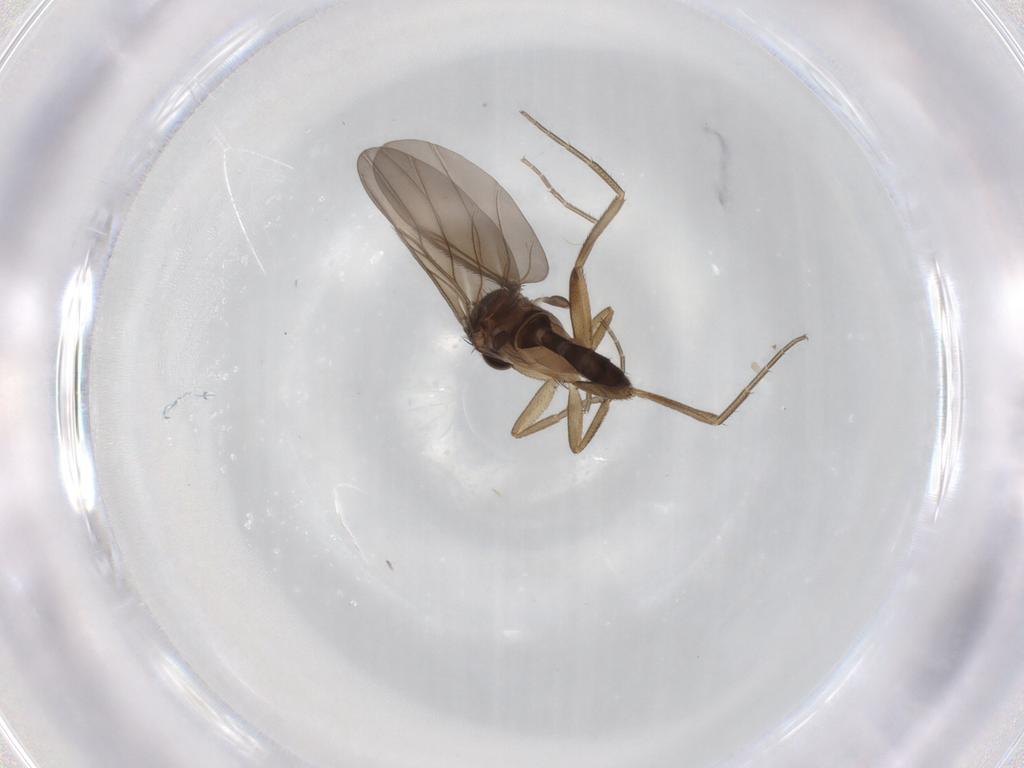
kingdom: Animalia
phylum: Arthropoda
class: Insecta
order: Diptera
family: Phoridae
